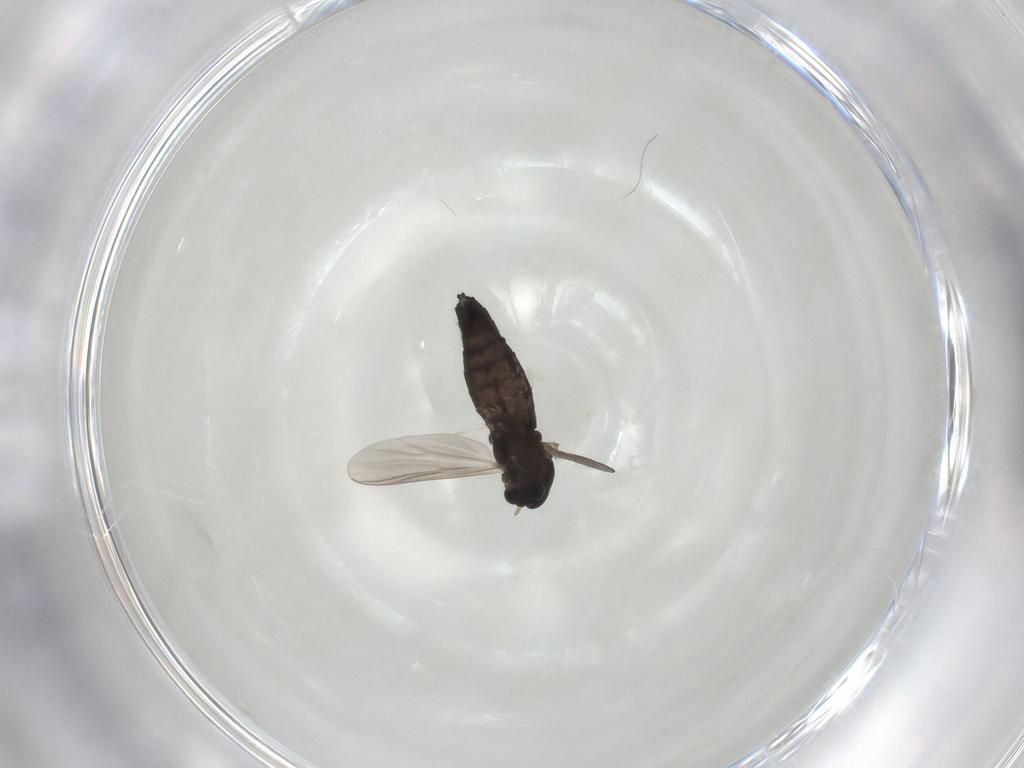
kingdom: Animalia
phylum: Arthropoda
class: Insecta
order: Diptera
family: Chironomidae
